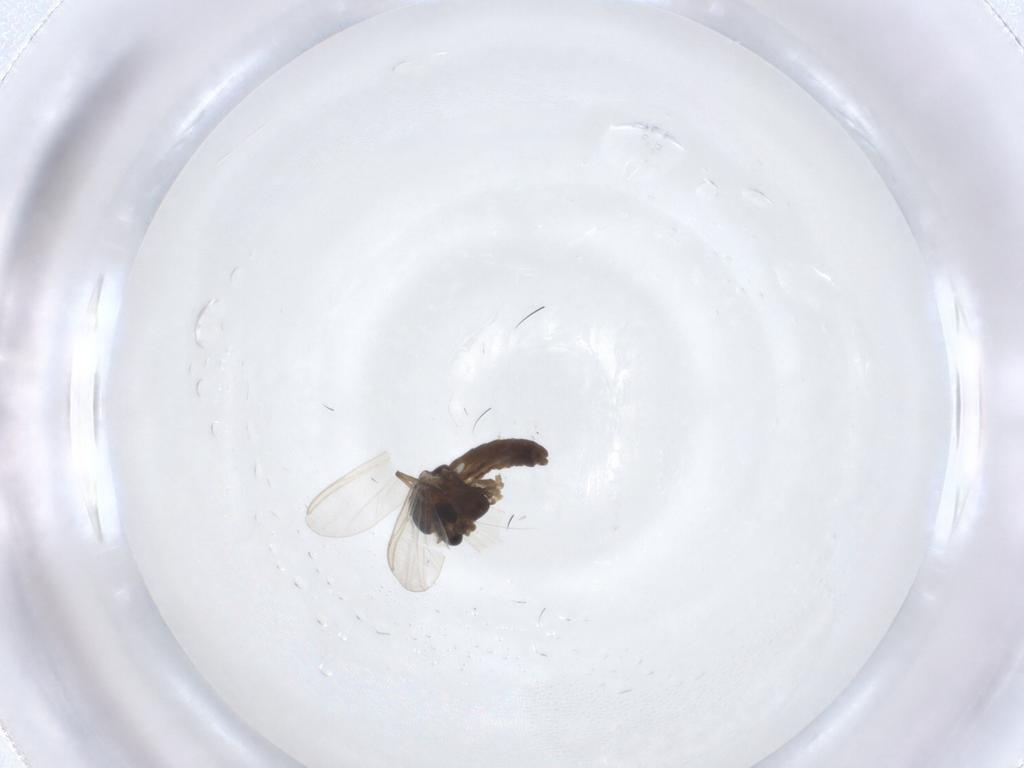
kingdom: Animalia
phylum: Arthropoda
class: Insecta
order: Diptera
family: Chironomidae
